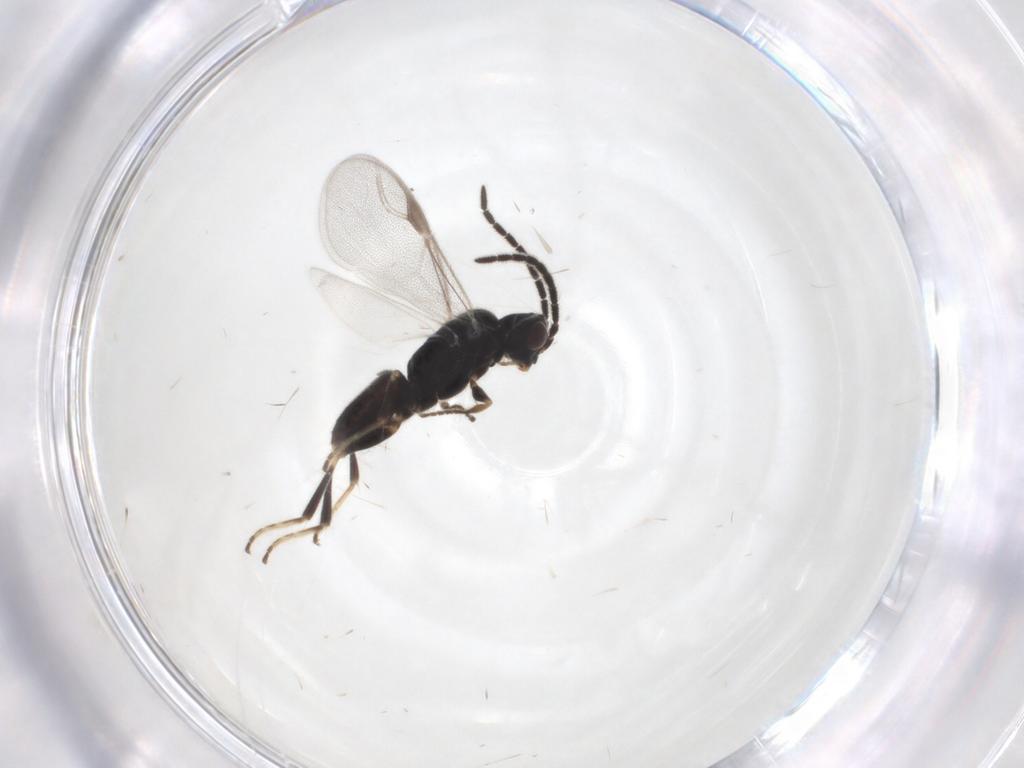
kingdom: Animalia
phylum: Arthropoda
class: Insecta
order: Hymenoptera
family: Dryinidae
